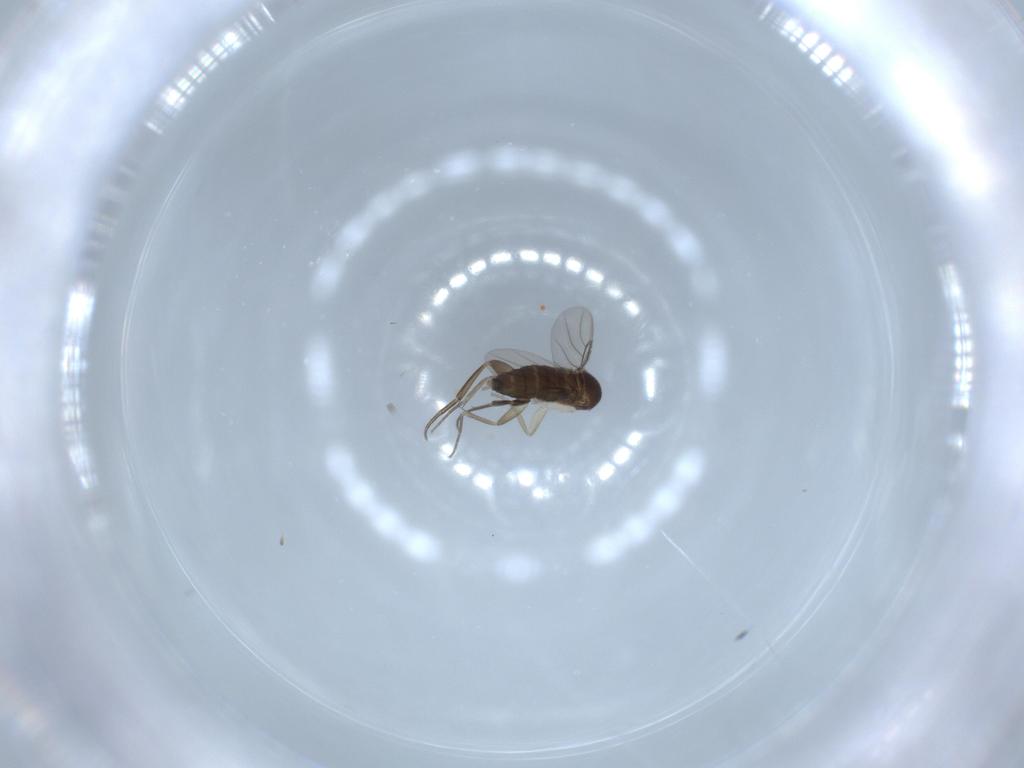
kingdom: Animalia
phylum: Arthropoda
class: Insecta
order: Diptera
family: Phoridae
